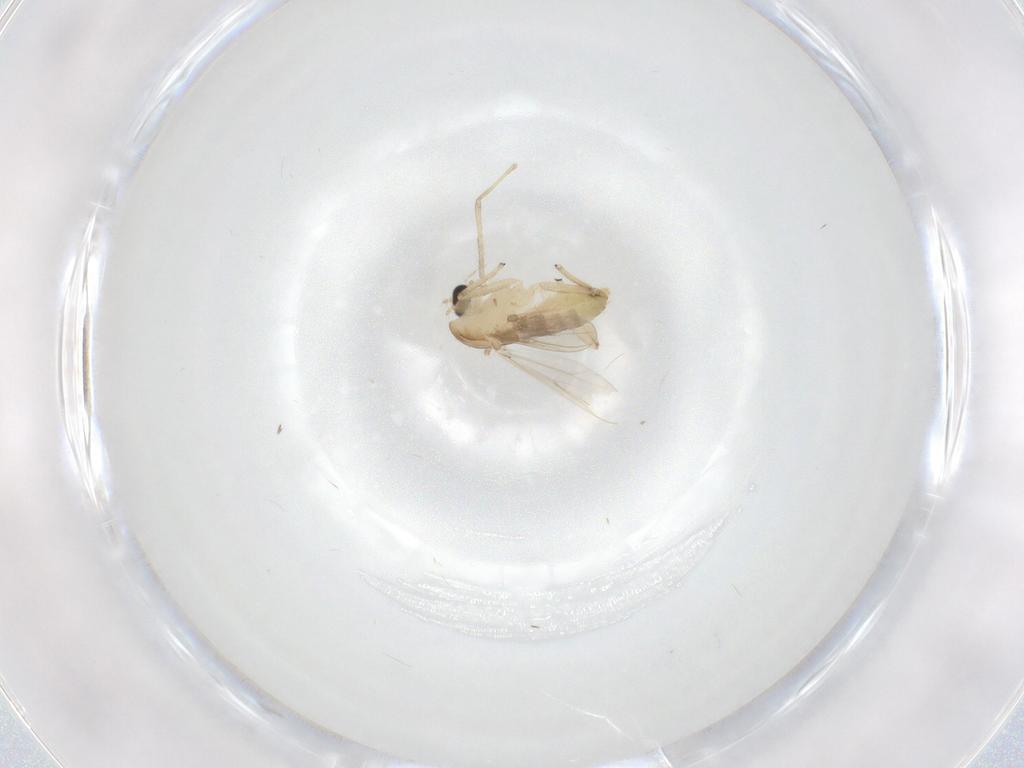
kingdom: Animalia
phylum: Arthropoda
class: Insecta
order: Diptera
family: Chironomidae
